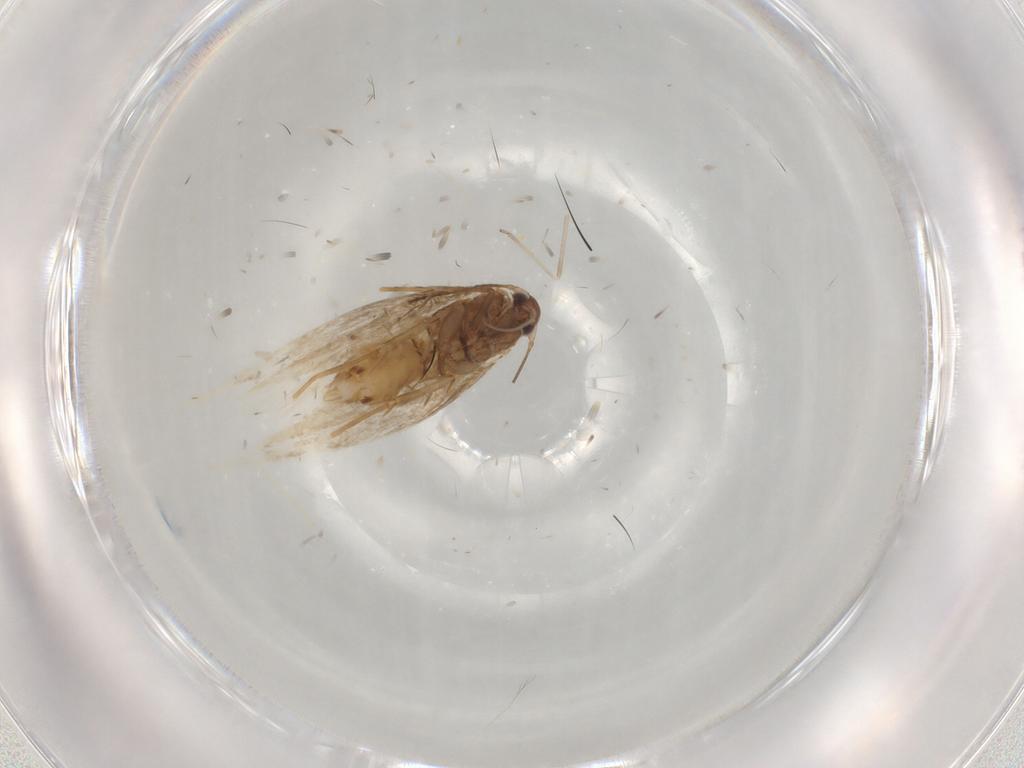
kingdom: Animalia
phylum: Arthropoda
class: Insecta
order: Lepidoptera
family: Gracillariidae
